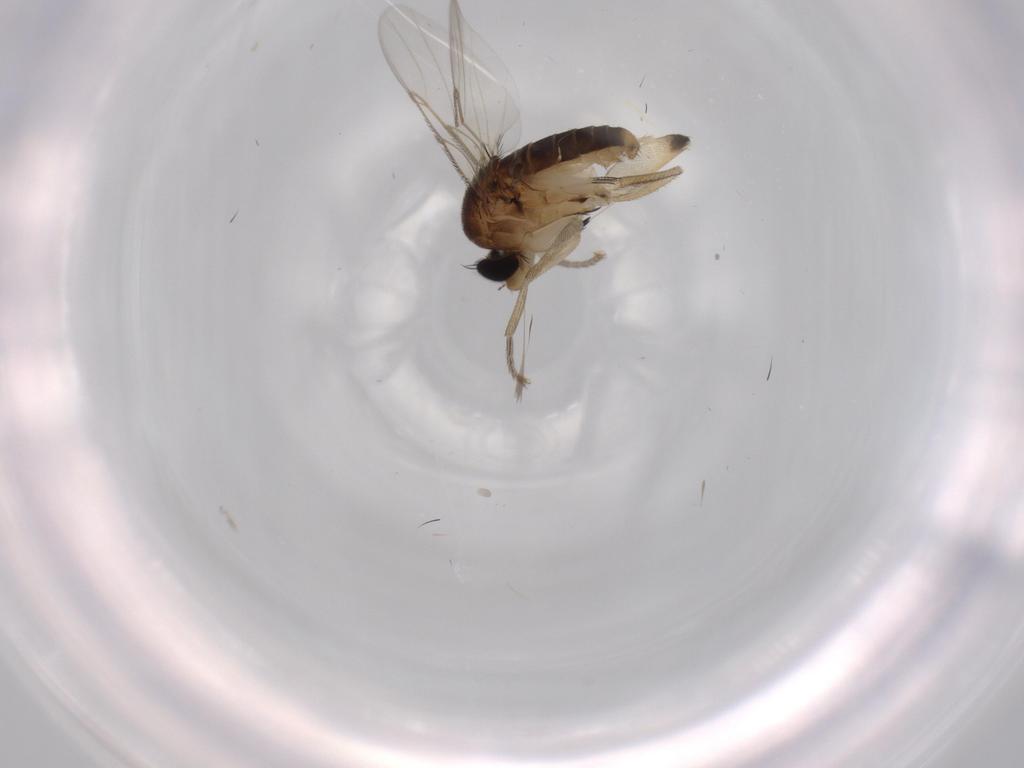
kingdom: Animalia
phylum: Arthropoda
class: Insecta
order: Diptera
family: Phoridae
